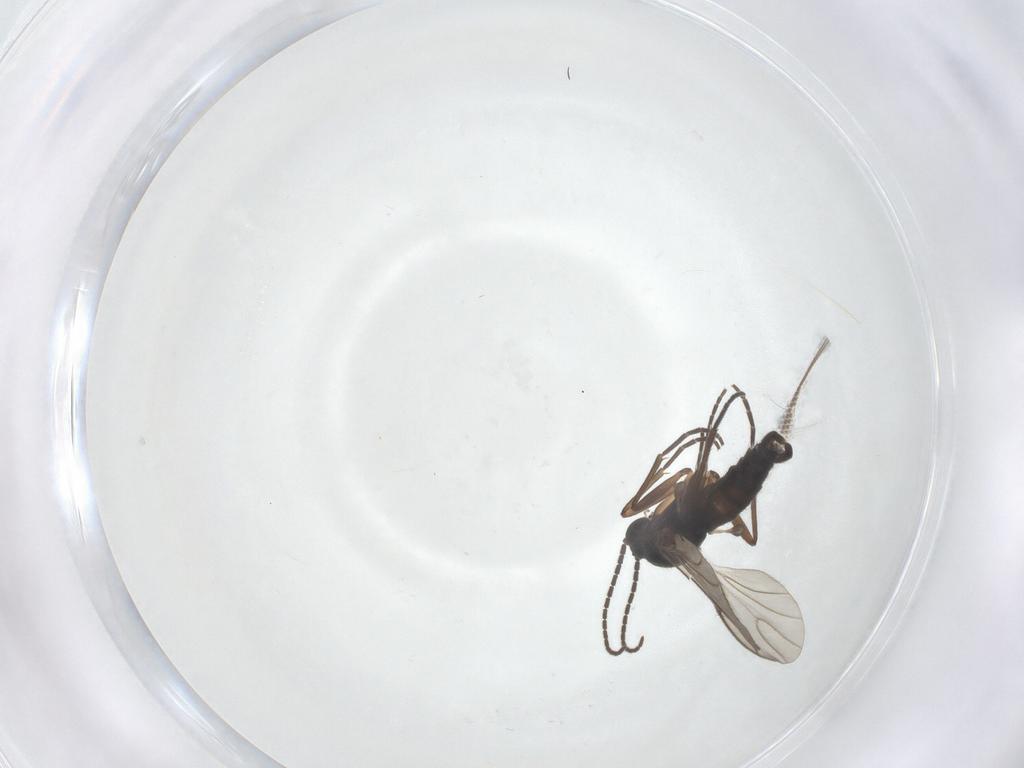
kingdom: Animalia
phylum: Arthropoda
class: Insecta
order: Diptera
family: Sciaridae
